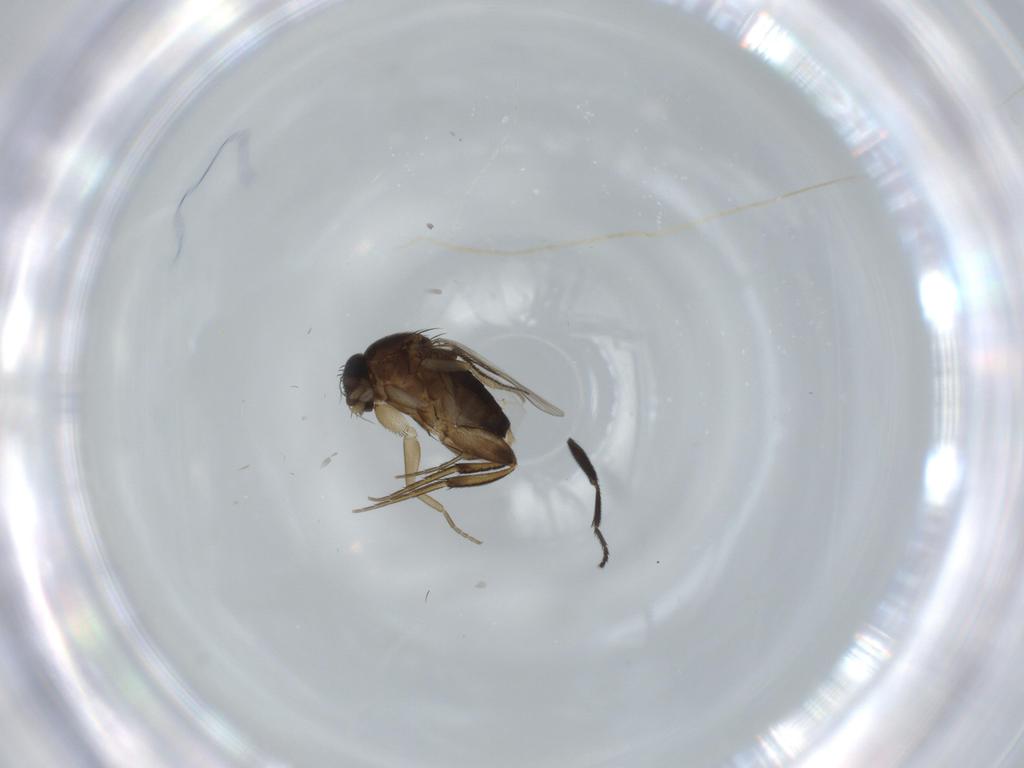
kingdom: Animalia
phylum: Arthropoda
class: Insecta
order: Diptera
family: Phoridae
